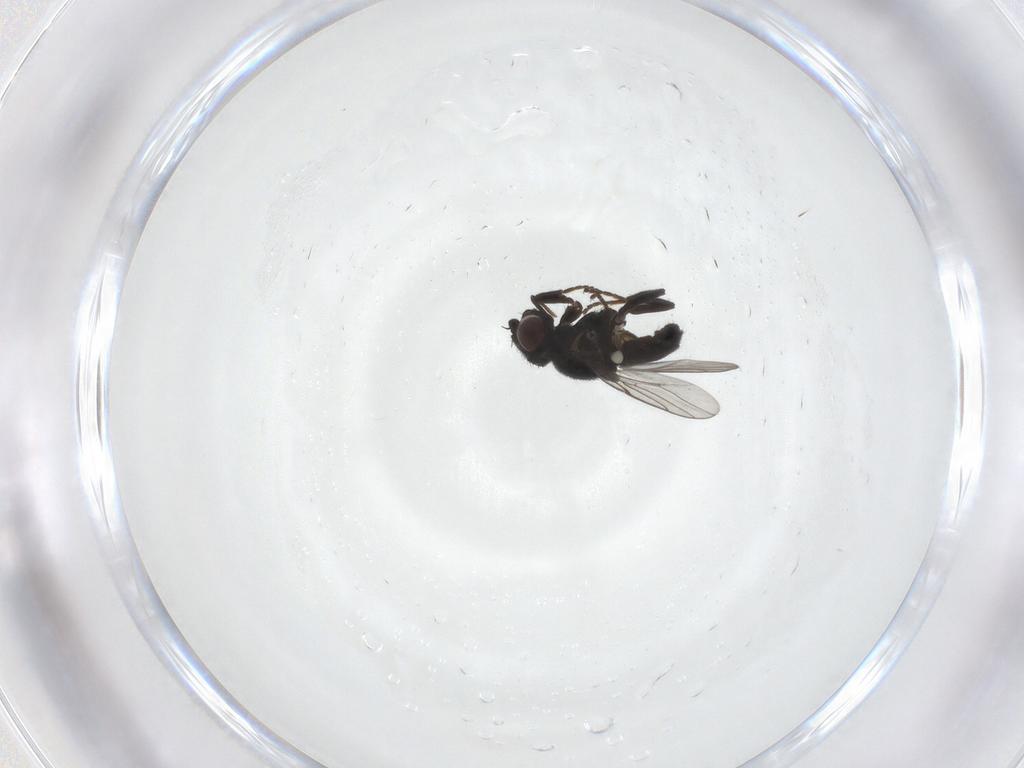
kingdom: Animalia
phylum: Arthropoda
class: Insecta
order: Diptera
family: Chloropidae
